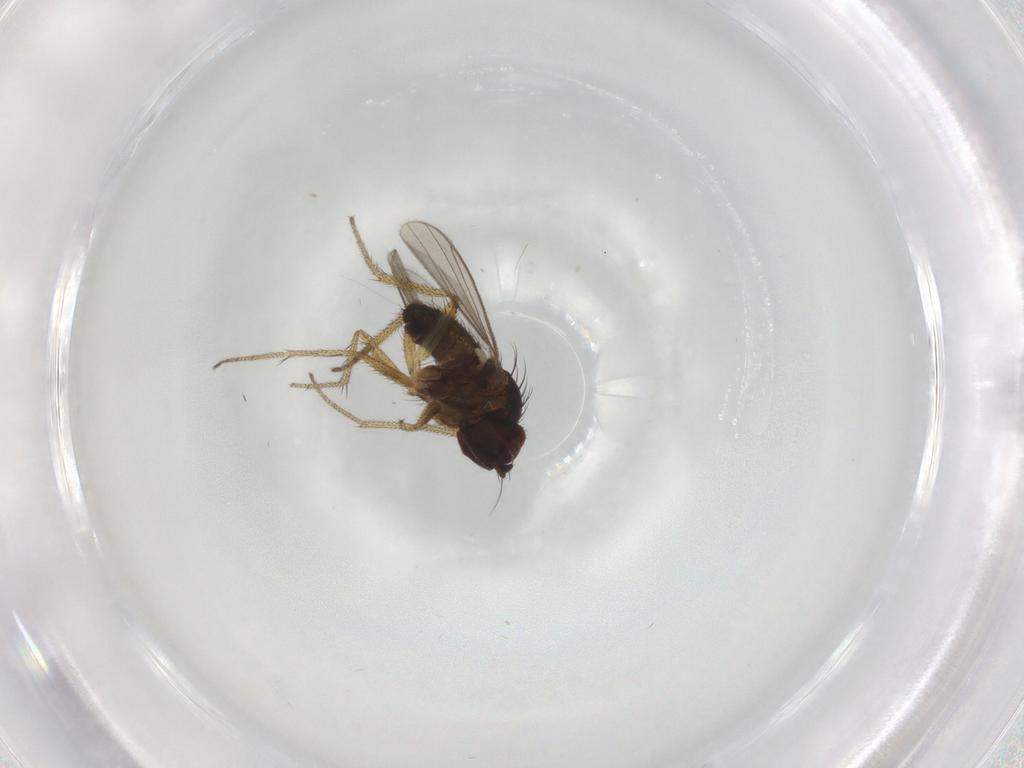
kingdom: Animalia
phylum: Arthropoda
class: Insecta
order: Diptera
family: Dolichopodidae
